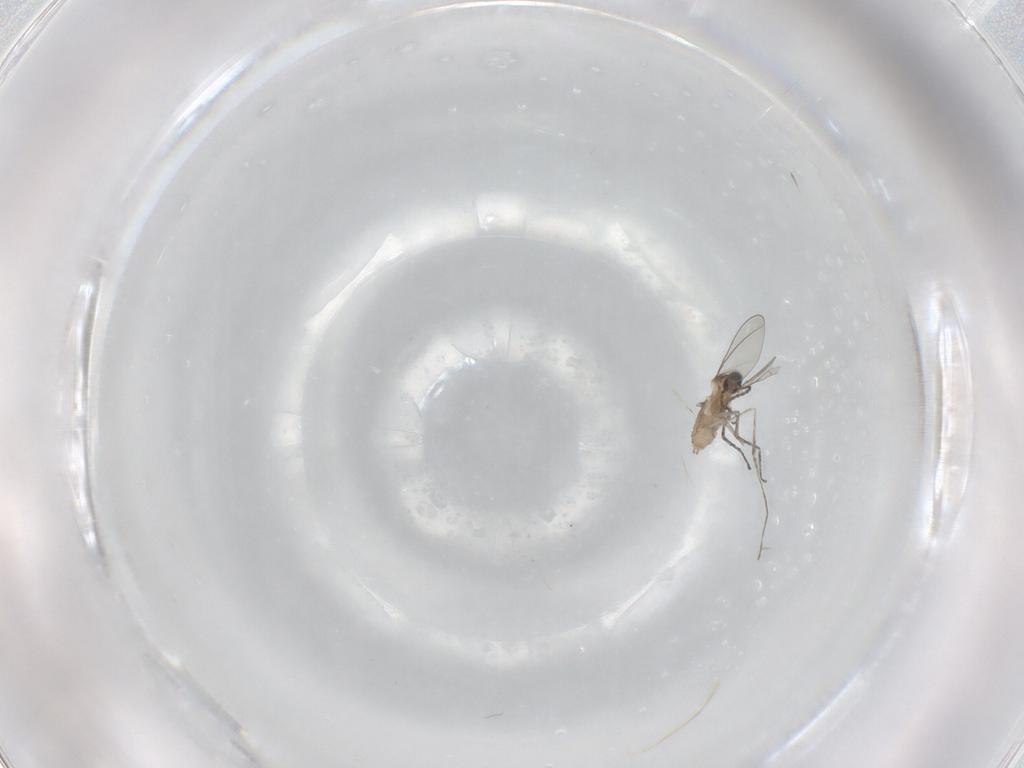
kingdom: Animalia
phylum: Arthropoda
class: Insecta
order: Diptera
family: Cecidomyiidae
